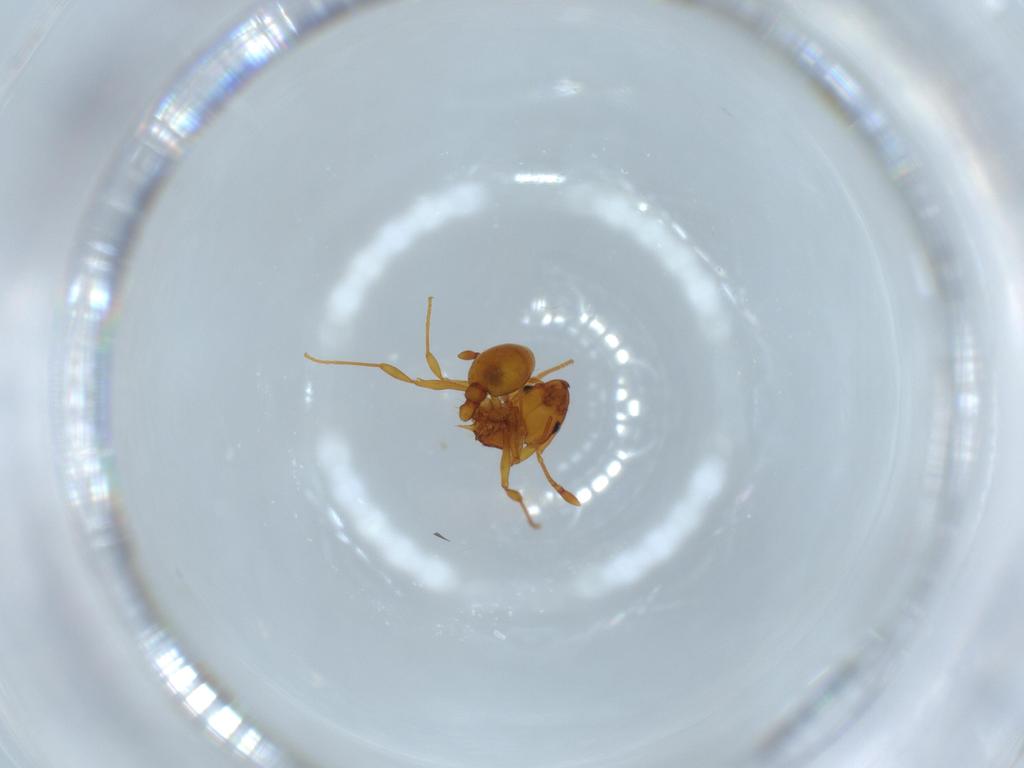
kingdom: Animalia
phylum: Arthropoda
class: Insecta
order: Hymenoptera
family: Formicidae
